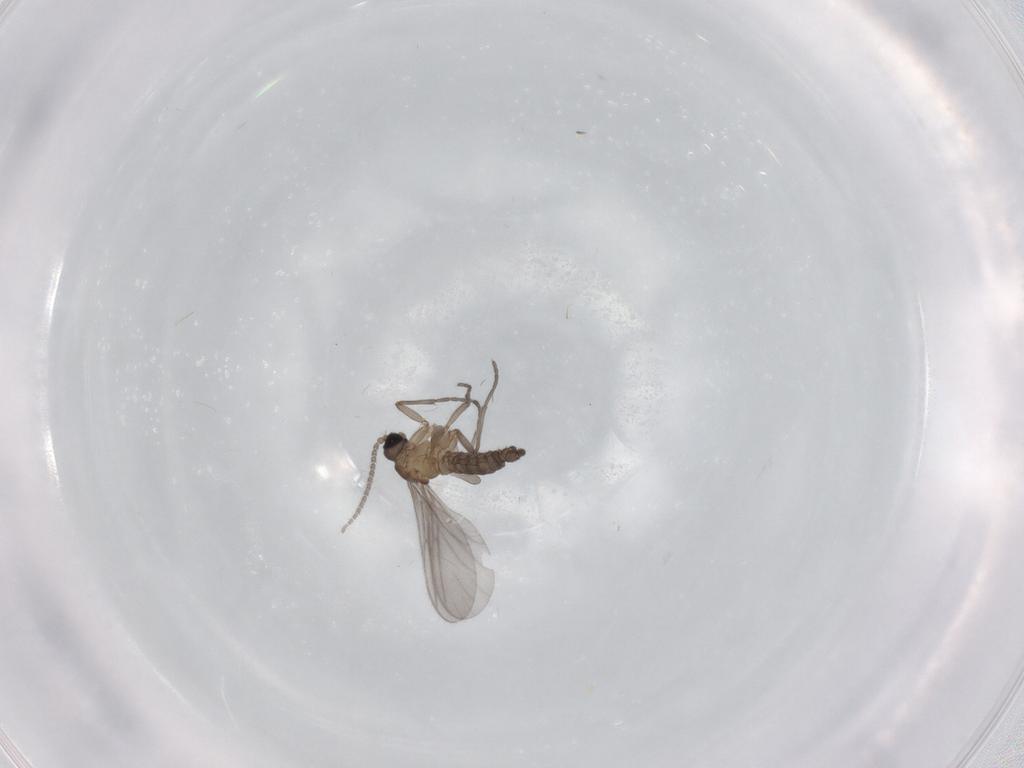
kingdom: Animalia
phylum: Arthropoda
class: Insecta
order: Diptera
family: Sciaridae
